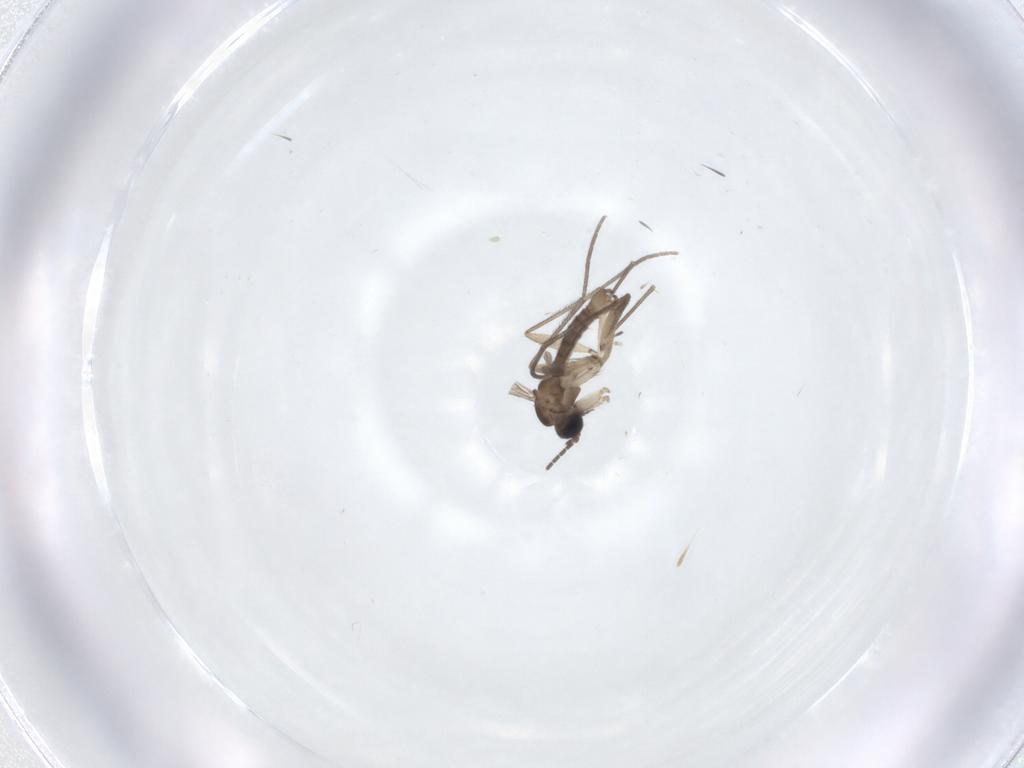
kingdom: Animalia
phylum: Arthropoda
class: Insecta
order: Diptera
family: Sciaridae
